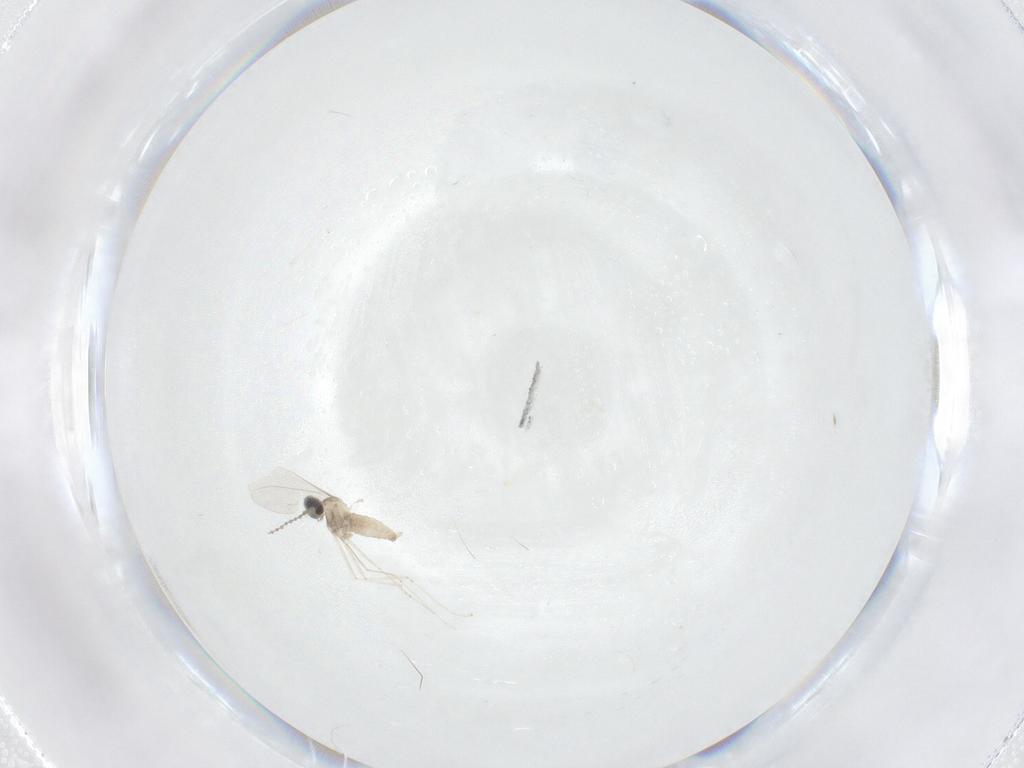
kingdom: Animalia
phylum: Arthropoda
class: Insecta
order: Diptera
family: Cecidomyiidae
